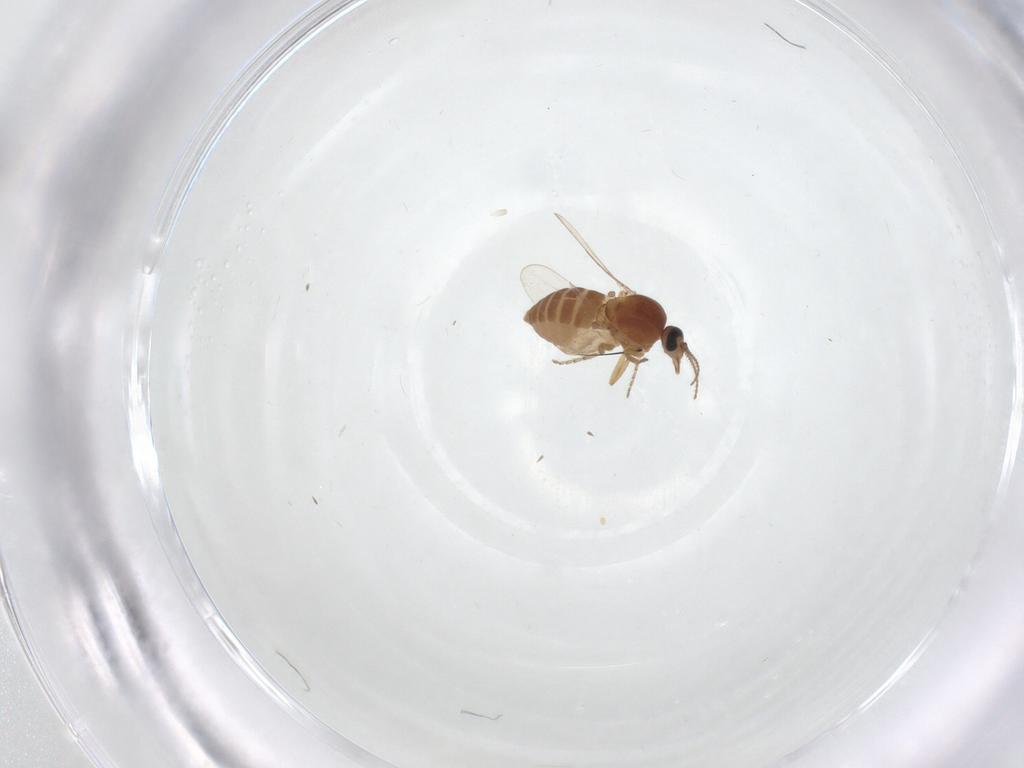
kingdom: Animalia
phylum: Arthropoda
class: Insecta
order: Diptera
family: Ceratopogonidae
